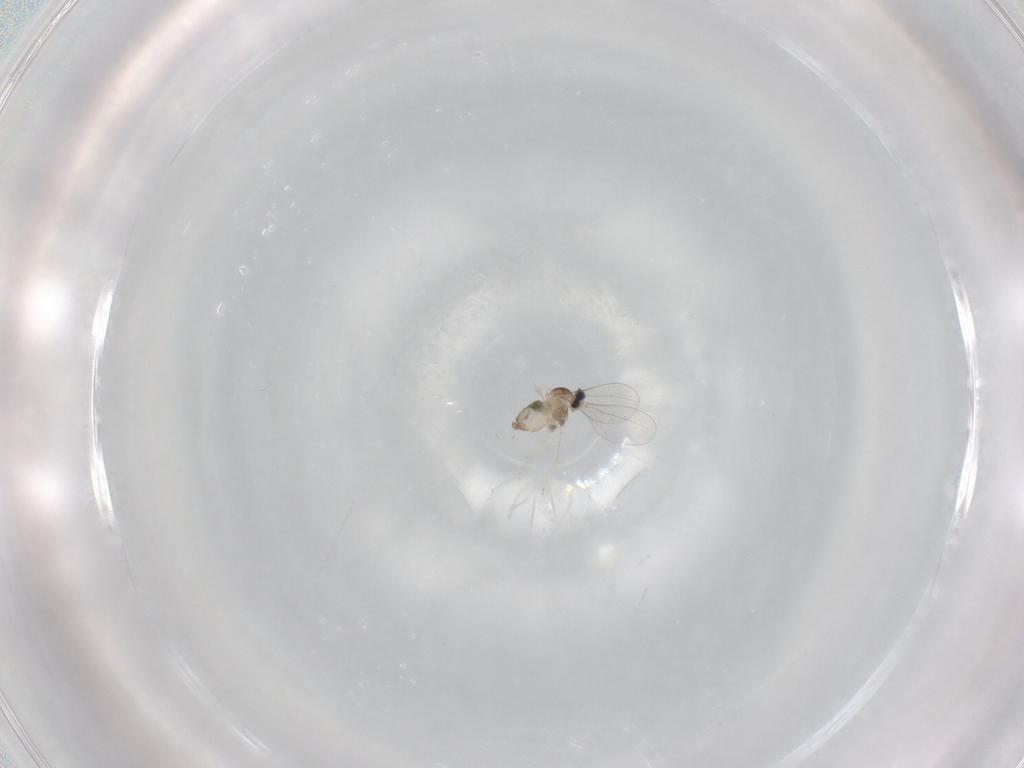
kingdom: Animalia
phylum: Arthropoda
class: Insecta
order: Diptera
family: Cecidomyiidae
